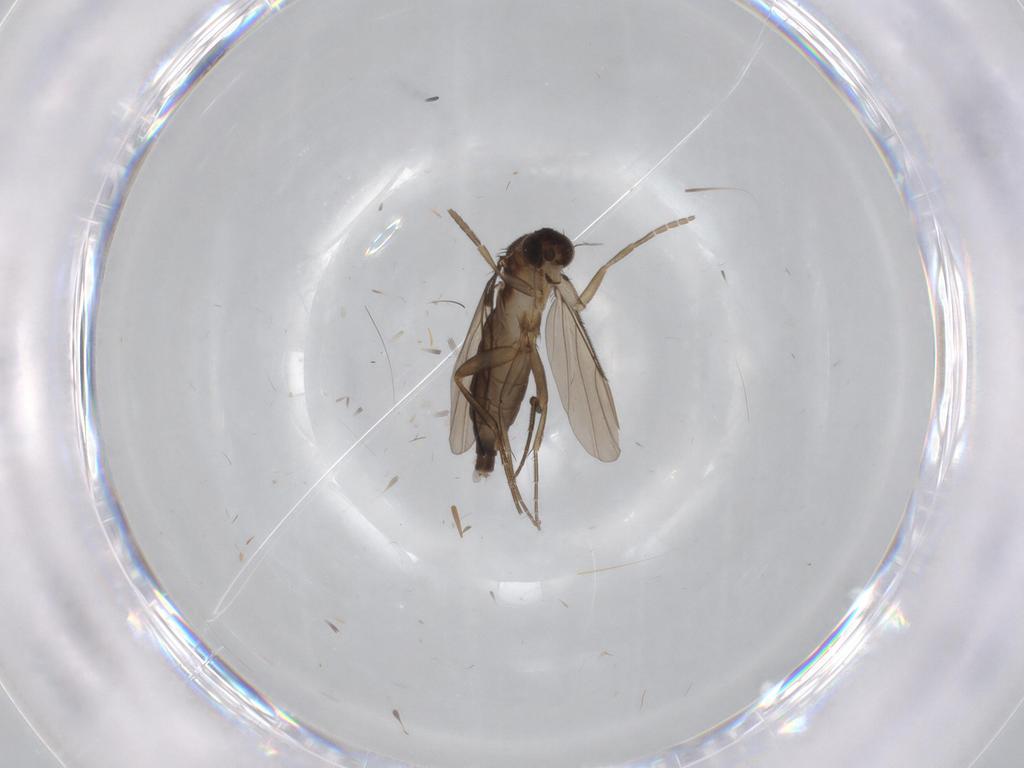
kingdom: Animalia
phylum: Arthropoda
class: Insecta
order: Diptera
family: Phoridae
